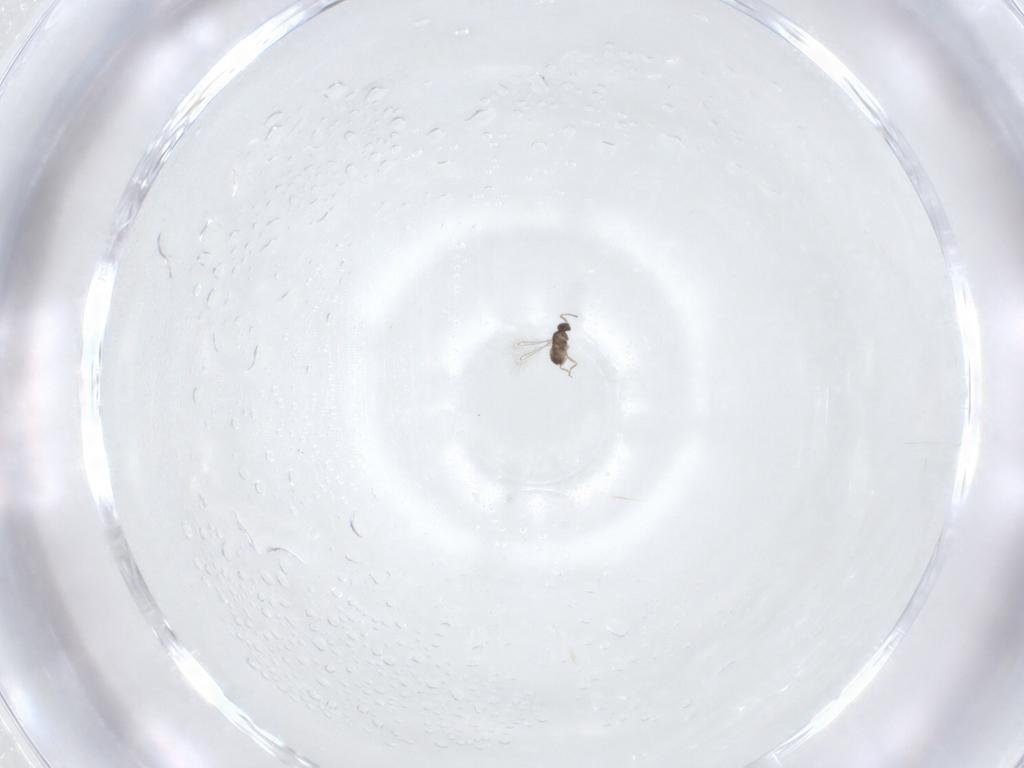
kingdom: Animalia
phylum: Arthropoda
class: Insecta
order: Hymenoptera
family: Mymaridae
